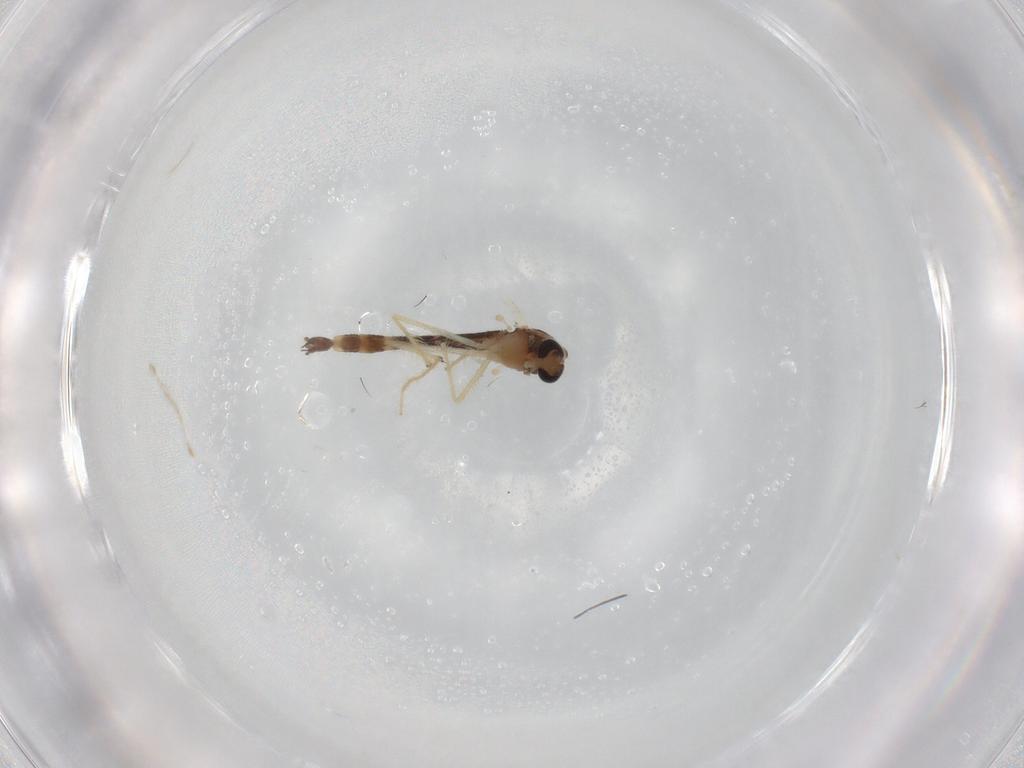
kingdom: Animalia
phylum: Arthropoda
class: Insecta
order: Diptera
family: Chironomidae
